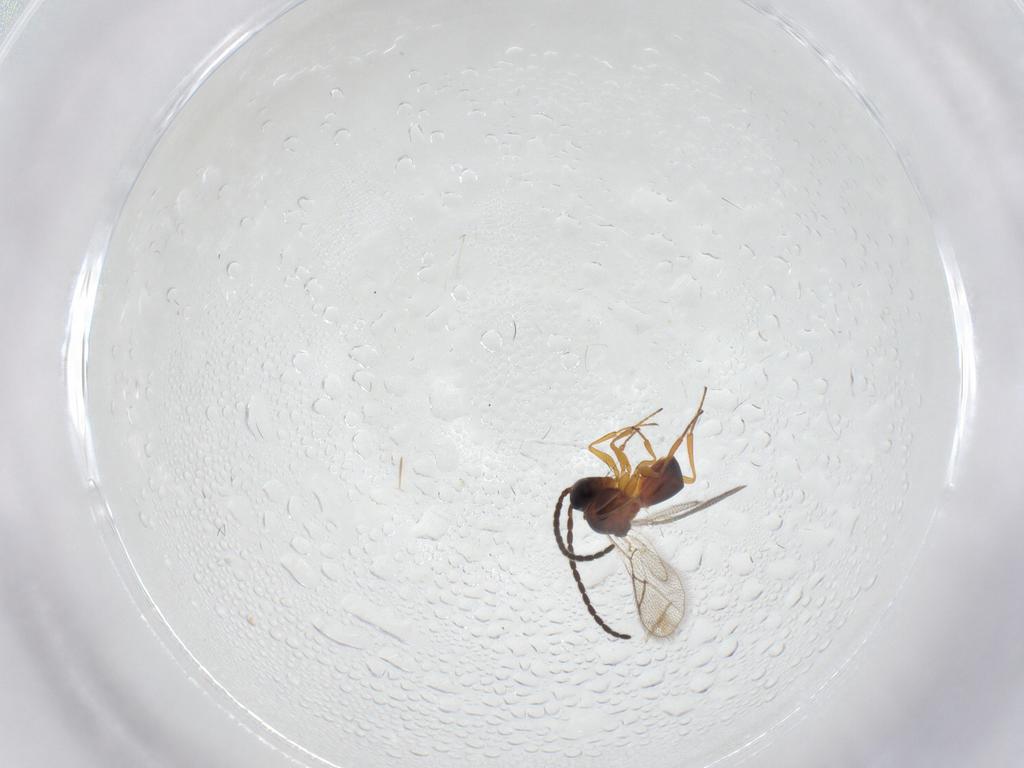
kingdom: Animalia
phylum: Arthropoda
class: Insecta
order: Hymenoptera
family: Figitidae
